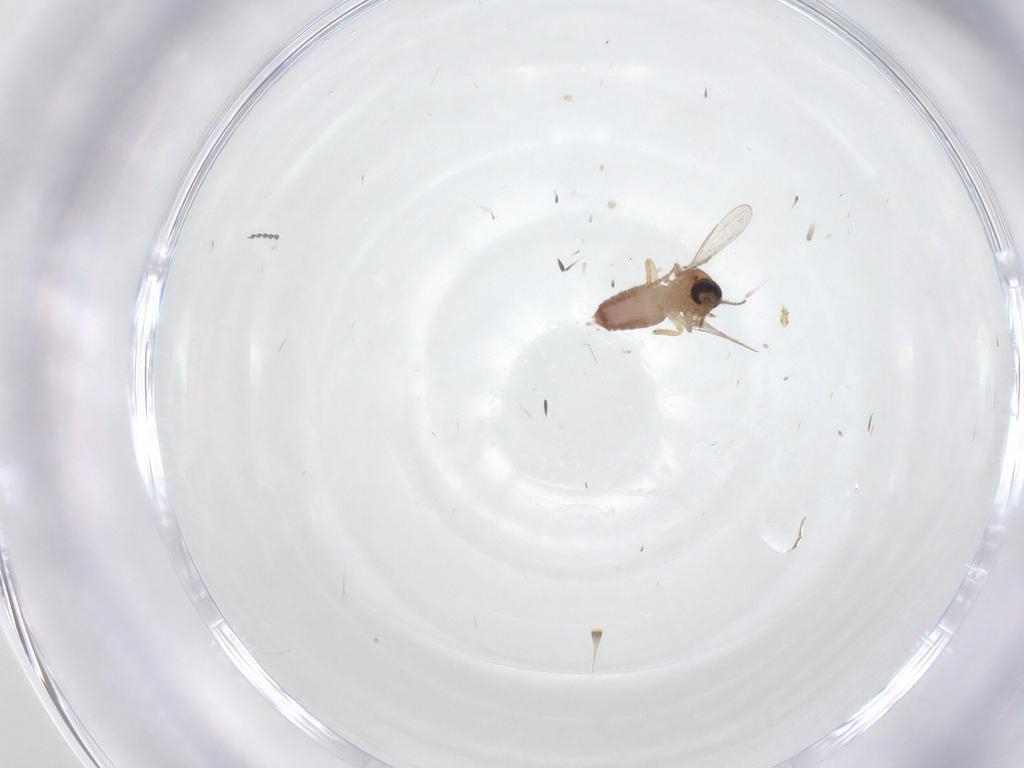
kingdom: Animalia
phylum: Arthropoda
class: Insecta
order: Diptera
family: Ceratopogonidae
